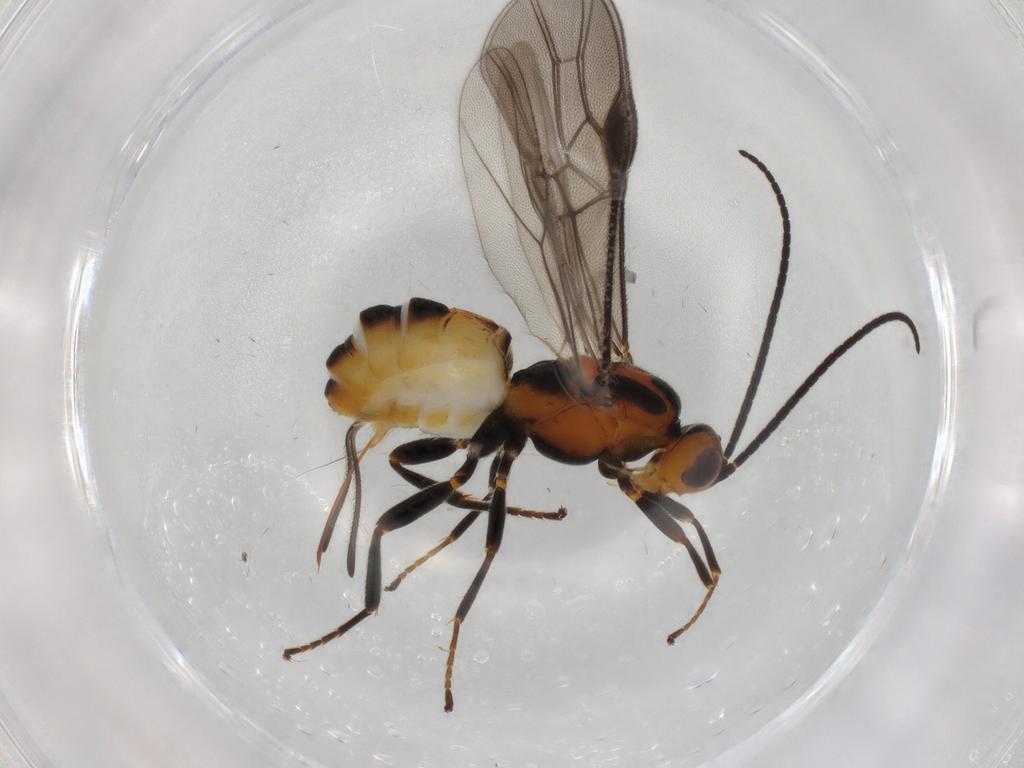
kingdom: Animalia
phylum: Arthropoda
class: Insecta
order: Hymenoptera
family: Braconidae
